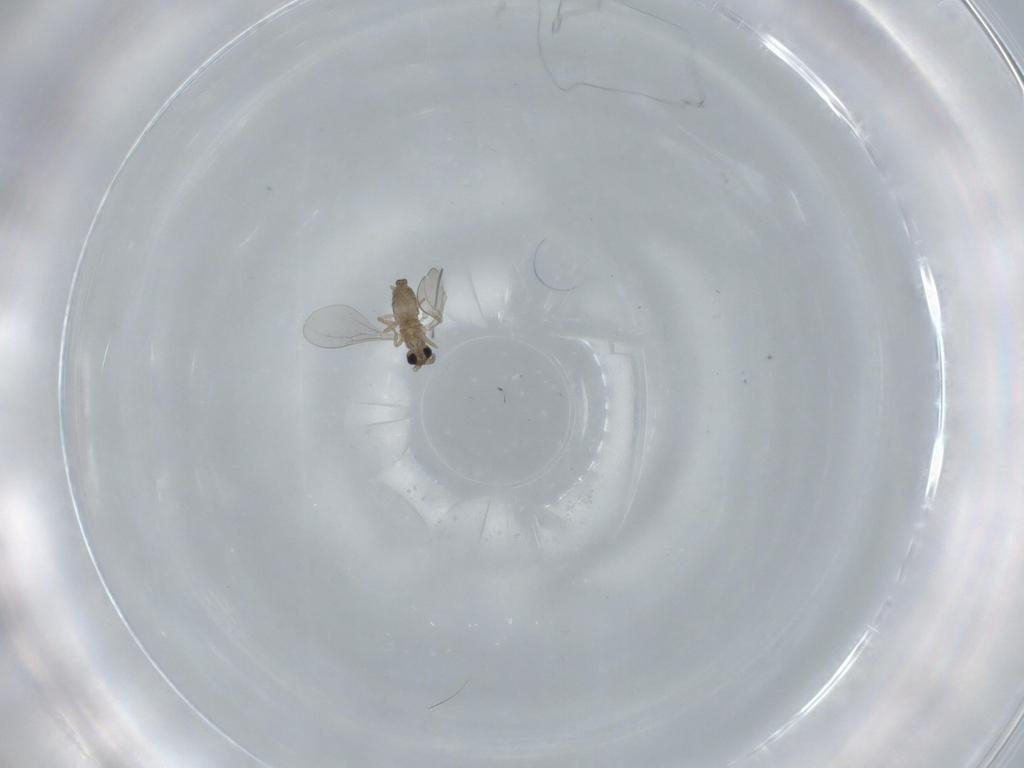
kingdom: Animalia
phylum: Arthropoda
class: Insecta
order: Diptera
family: Cecidomyiidae
